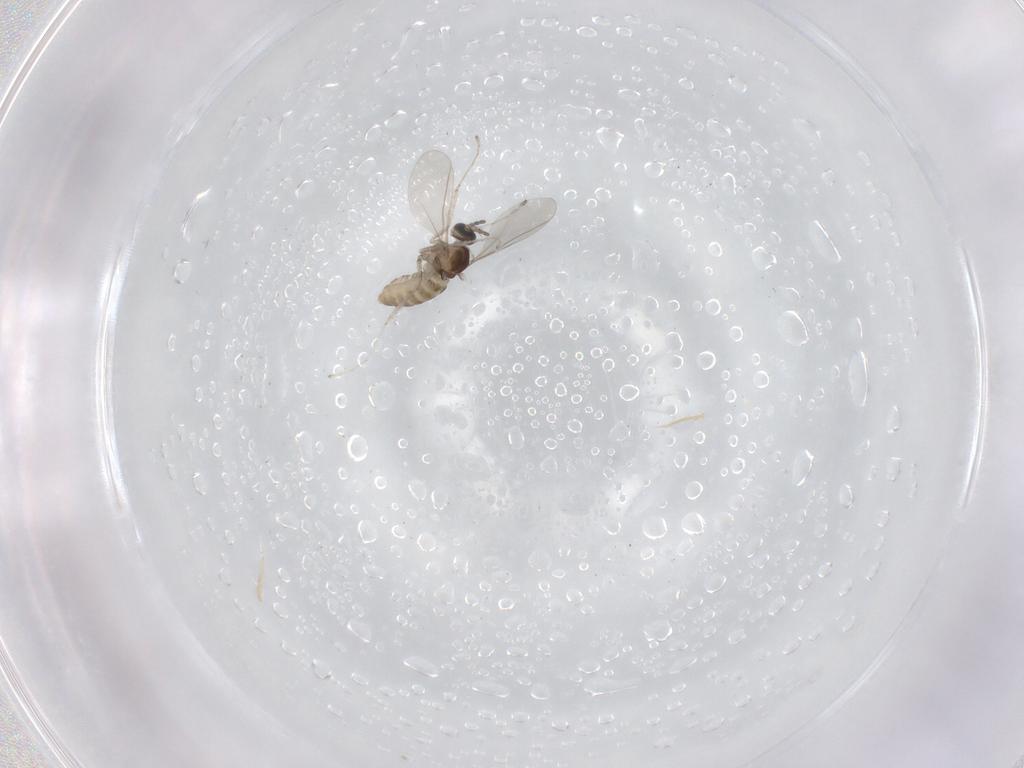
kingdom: Animalia
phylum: Arthropoda
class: Insecta
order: Diptera
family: Cecidomyiidae
